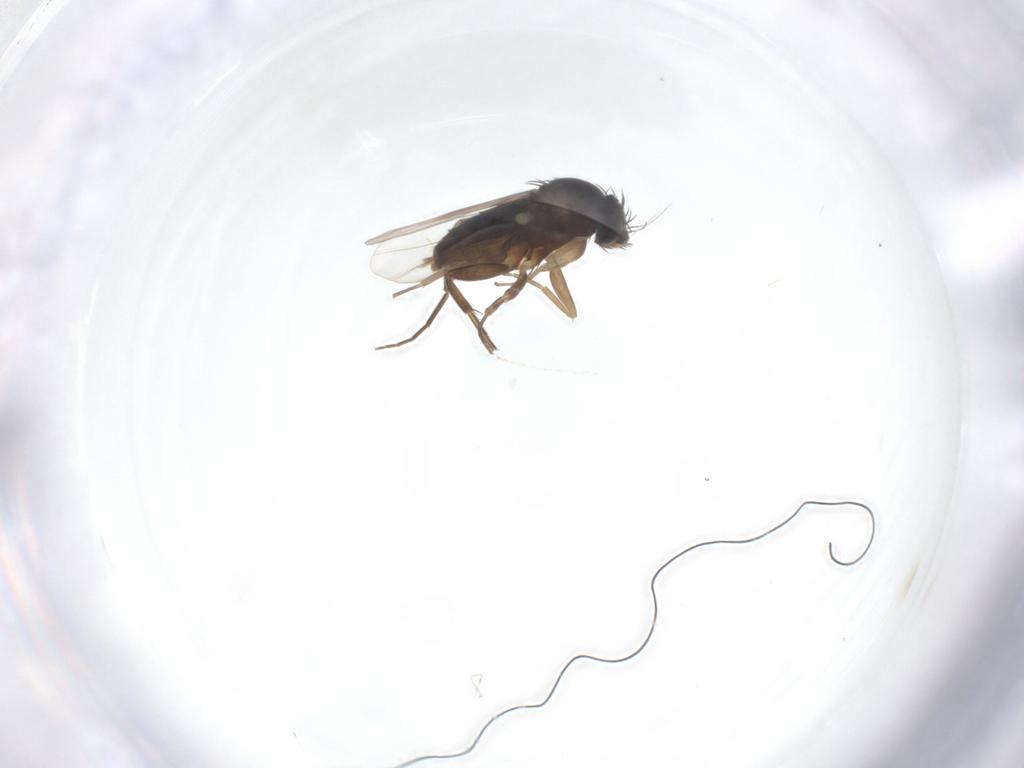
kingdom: Animalia
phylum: Arthropoda
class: Insecta
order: Diptera
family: Phoridae
